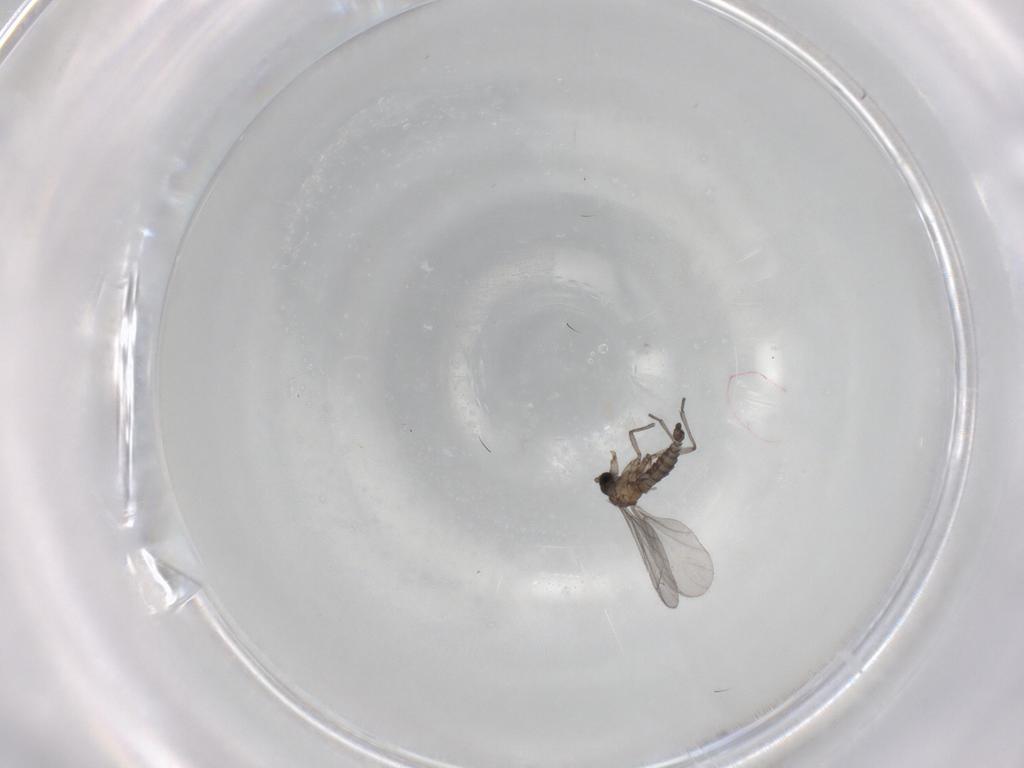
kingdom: Animalia
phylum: Arthropoda
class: Insecta
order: Diptera
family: Sciaridae
